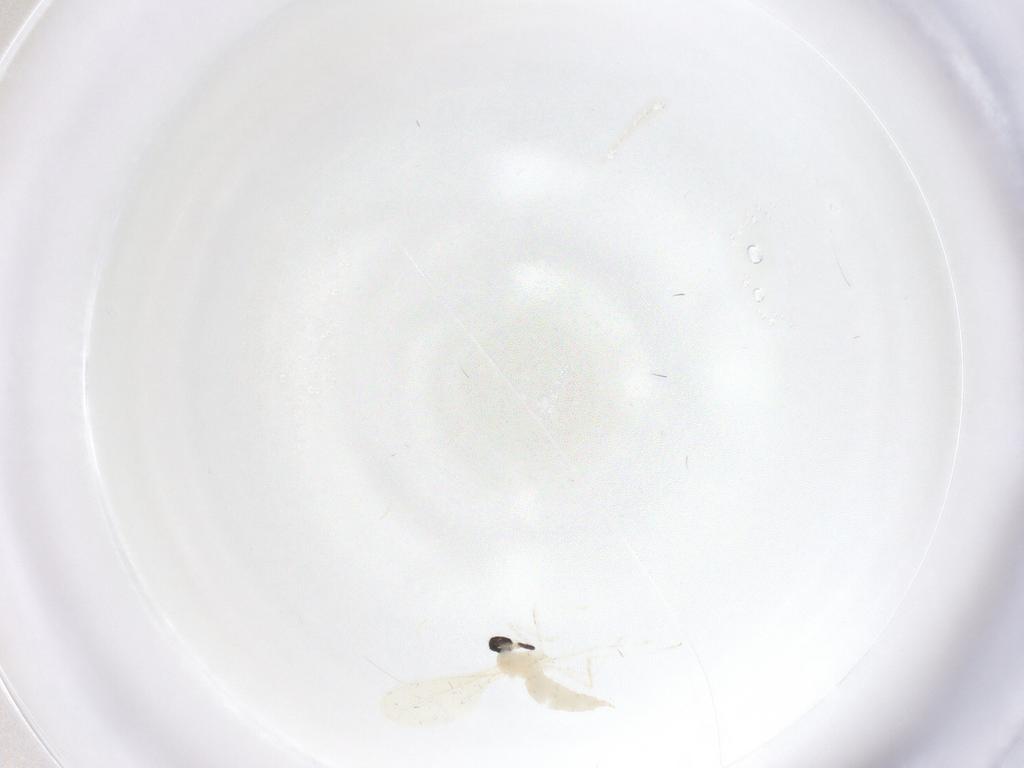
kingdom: Animalia
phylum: Arthropoda
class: Insecta
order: Diptera
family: Cecidomyiidae
